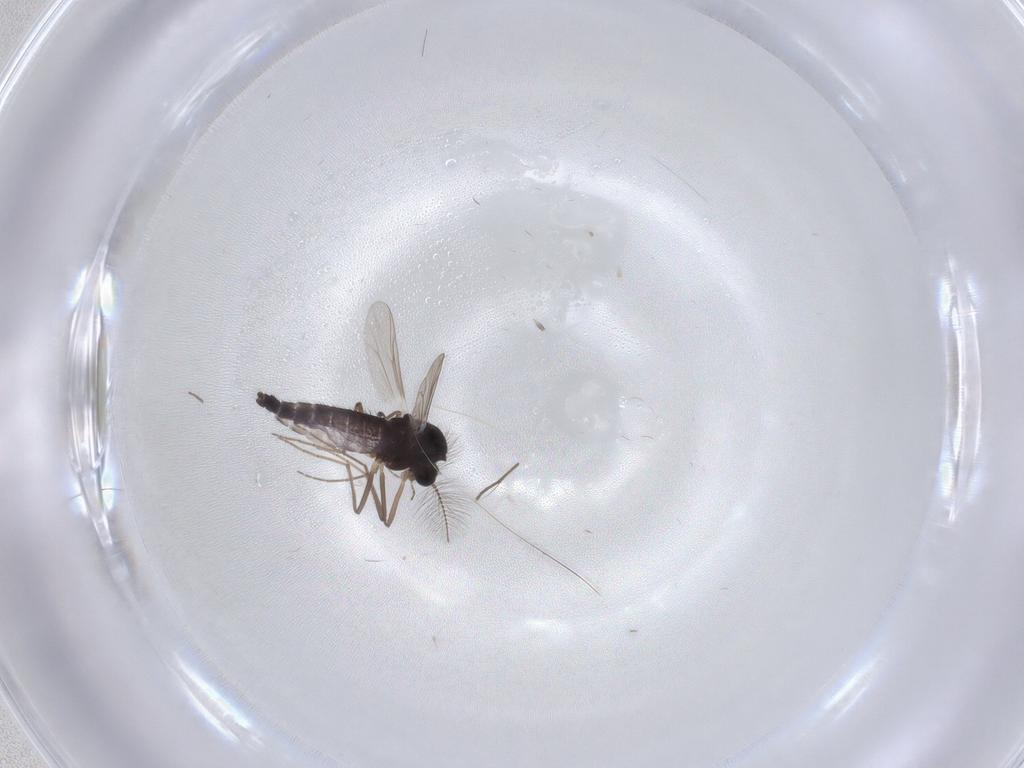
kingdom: Animalia
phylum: Arthropoda
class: Insecta
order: Diptera
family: Chironomidae
